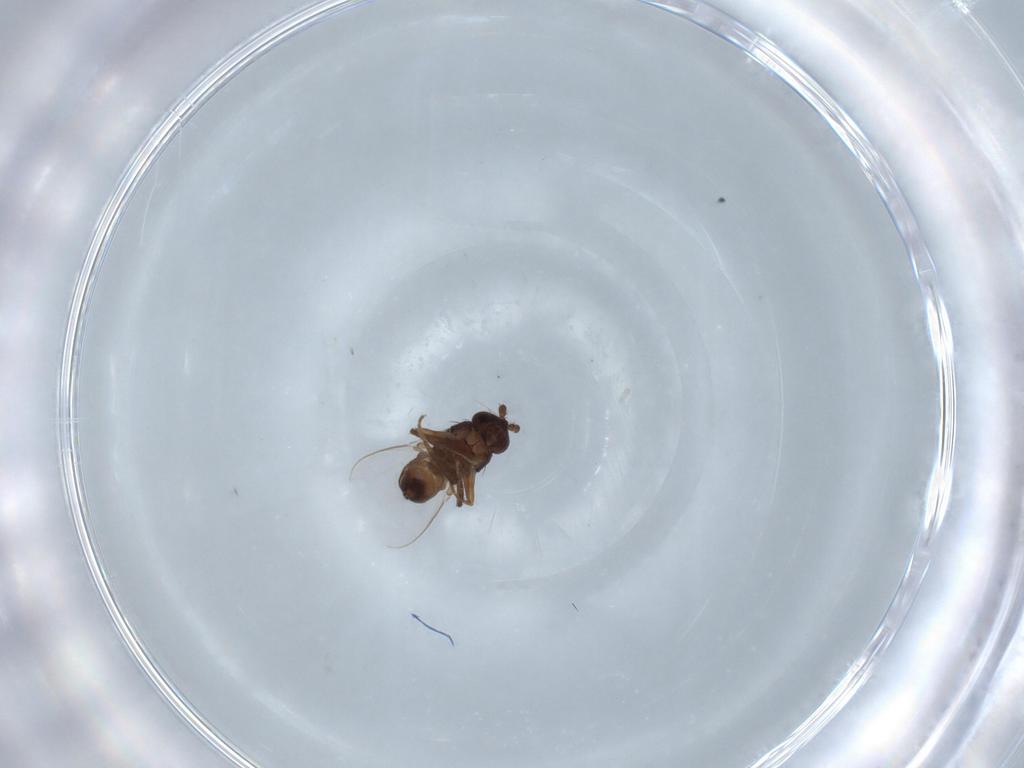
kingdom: Animalia
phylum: Arthropoda
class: Insecta
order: Diptera
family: Sphaeroceridae
